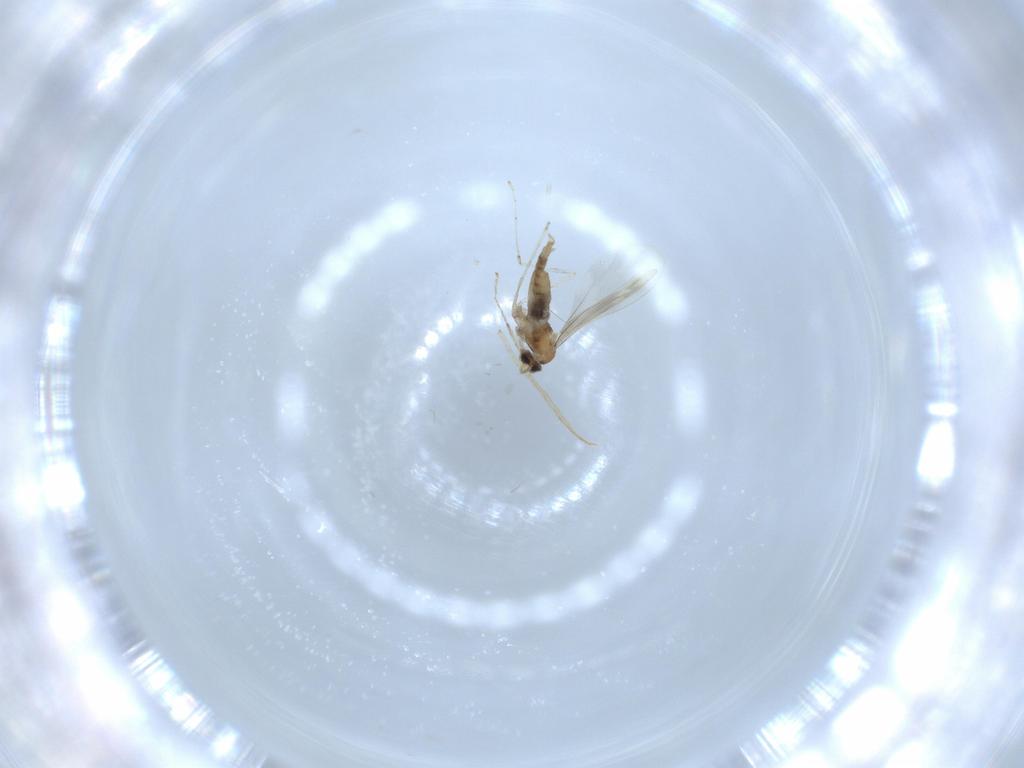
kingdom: Animalia
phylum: Arthropoda
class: Insecta
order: Diptera
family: Cecidomyiidae
